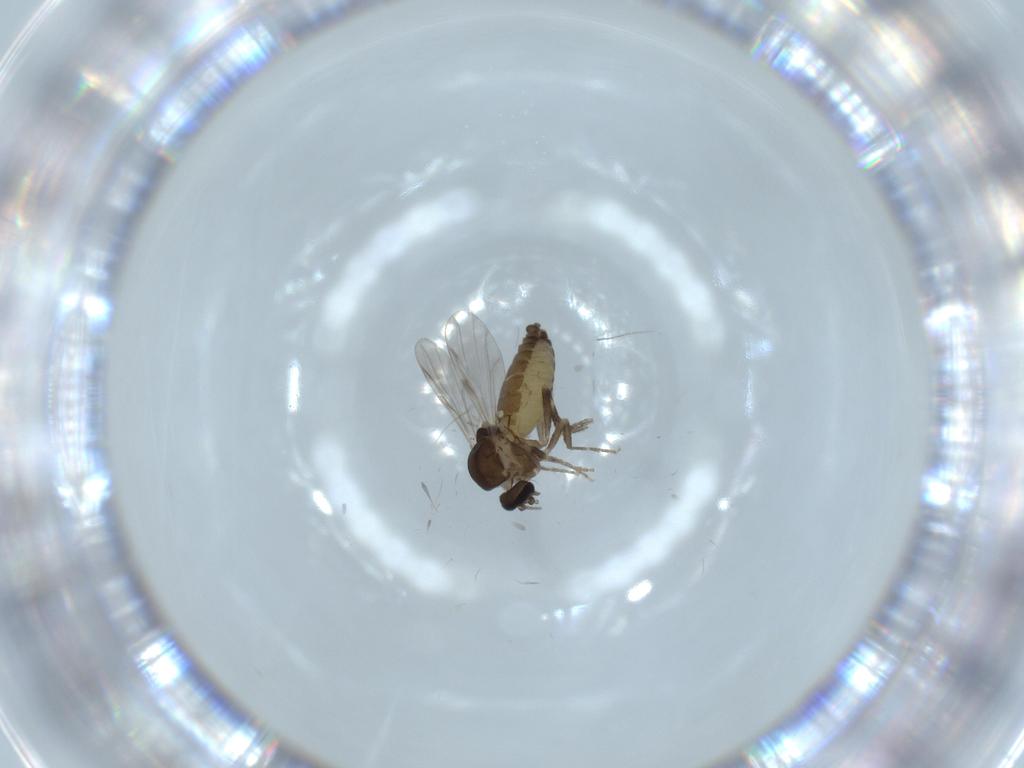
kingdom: Animalia
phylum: Arthropoda
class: Insecta
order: Diptera
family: Ceratopogonidae
